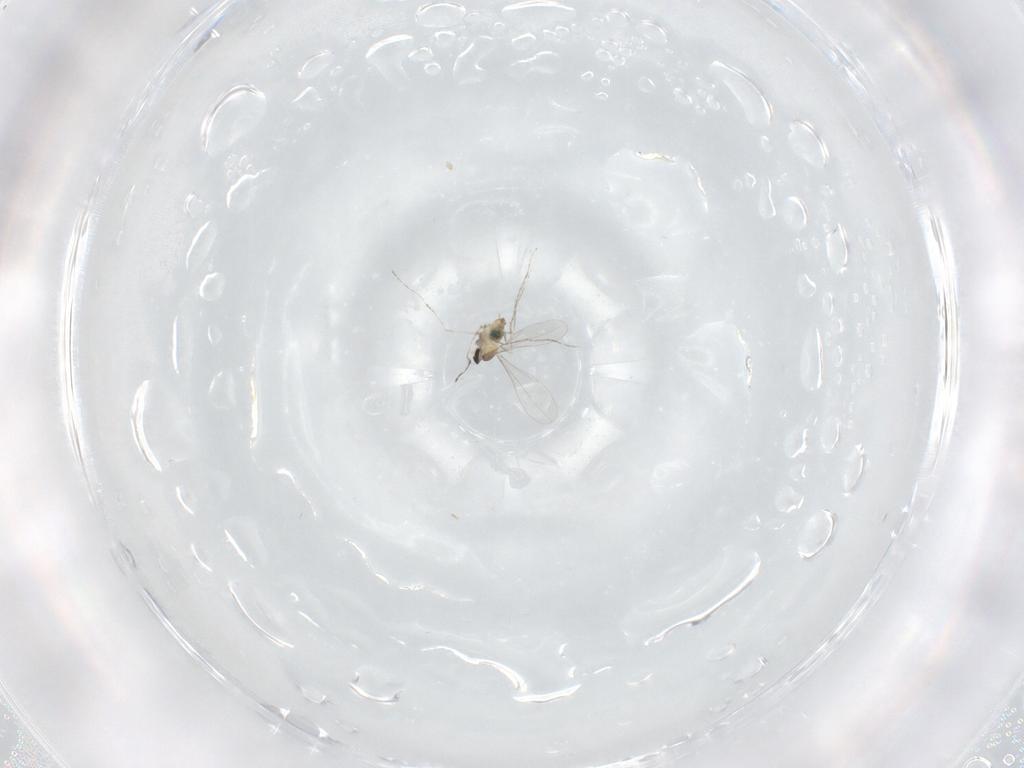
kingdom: Animalia
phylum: Arthropoda
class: Insecta
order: Diptera
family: Cecidomyiidae
